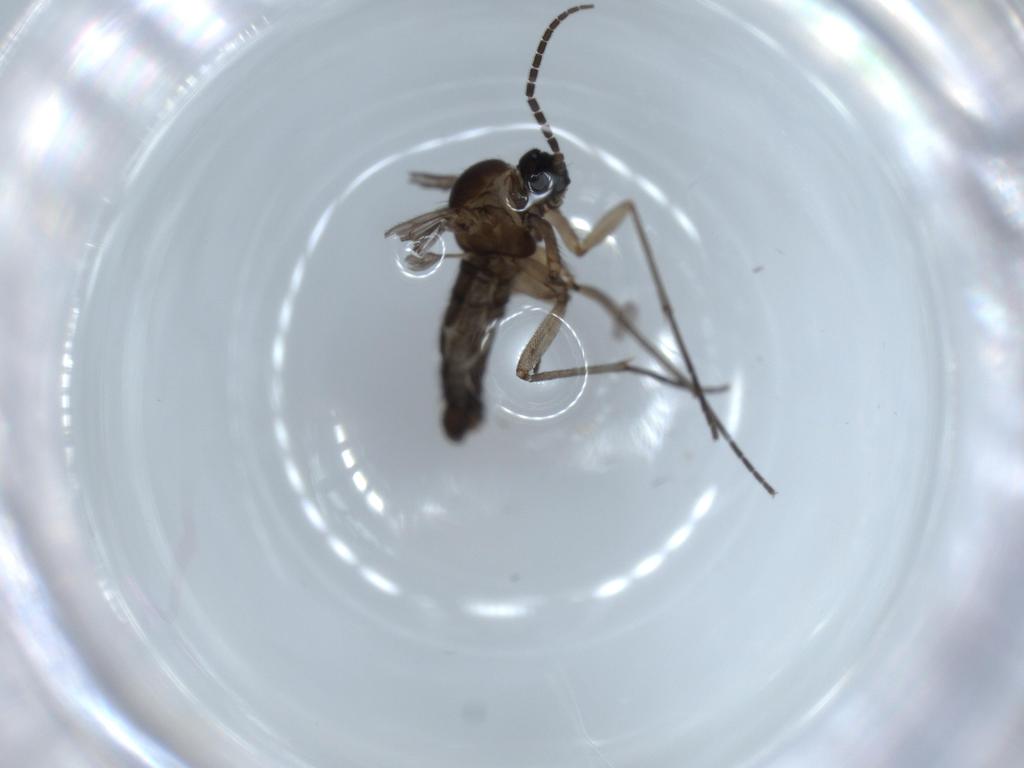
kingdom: Animalia
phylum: Arthropoda
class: Insecta
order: Diptera
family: Sciaridae
